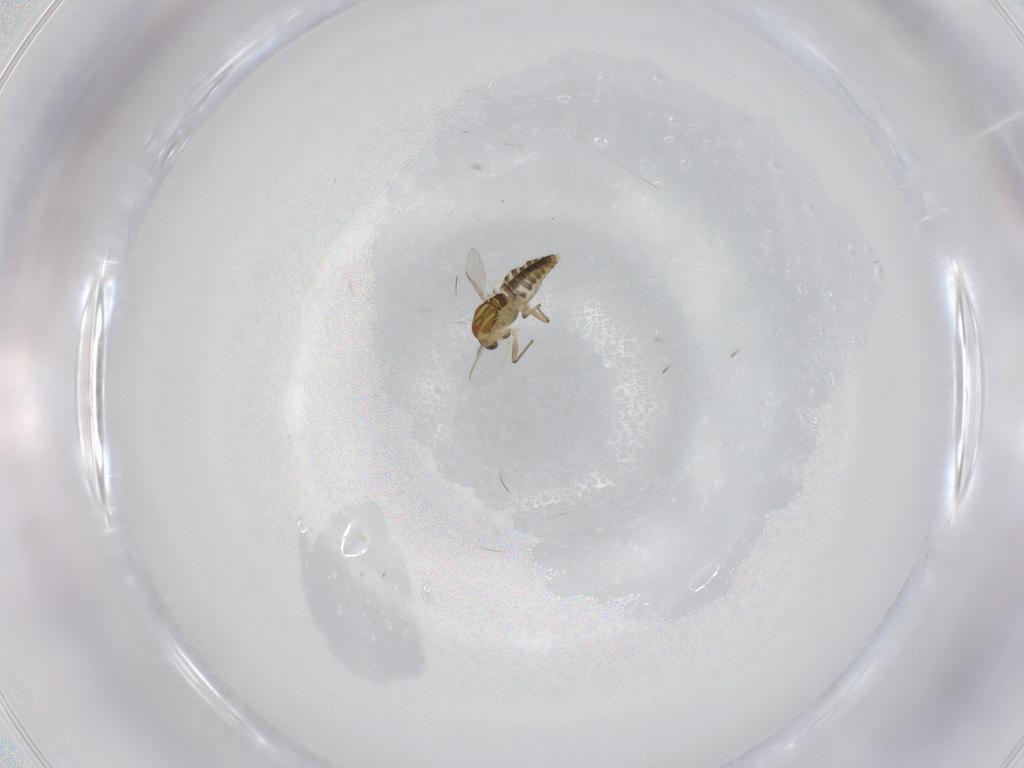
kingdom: Animalia
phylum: Arthropoda
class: Insecta
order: Diptera
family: Chironomidae
